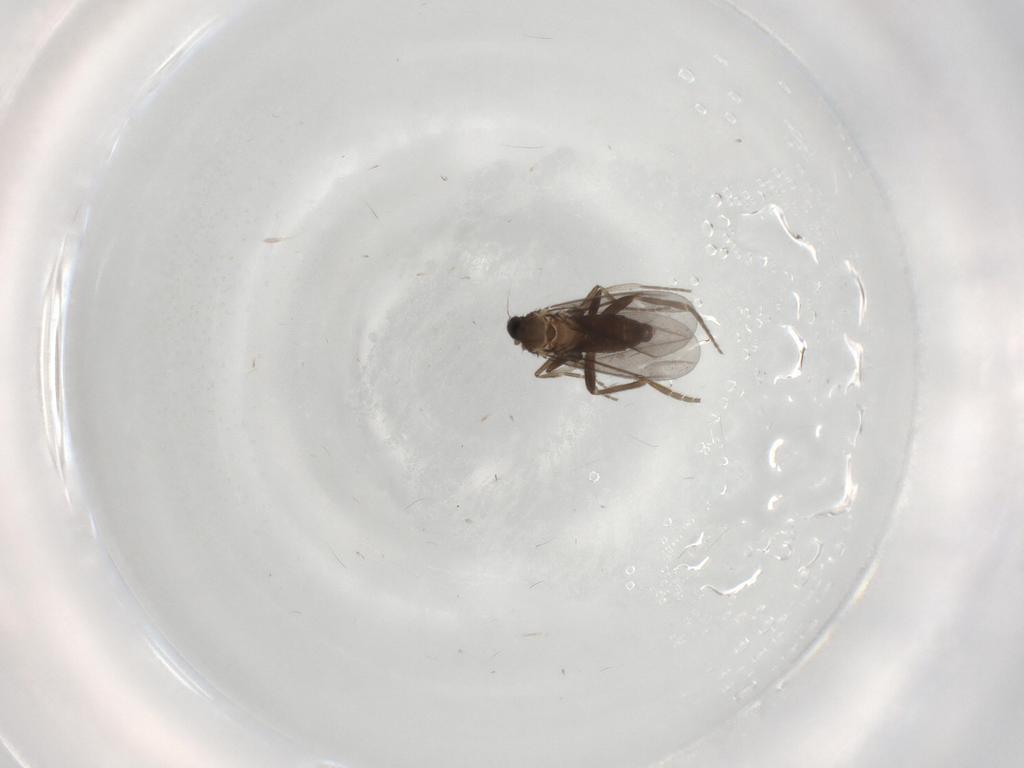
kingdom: Animalia
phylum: Arthropoda
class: Insecta
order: Diptera
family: Phoridae
